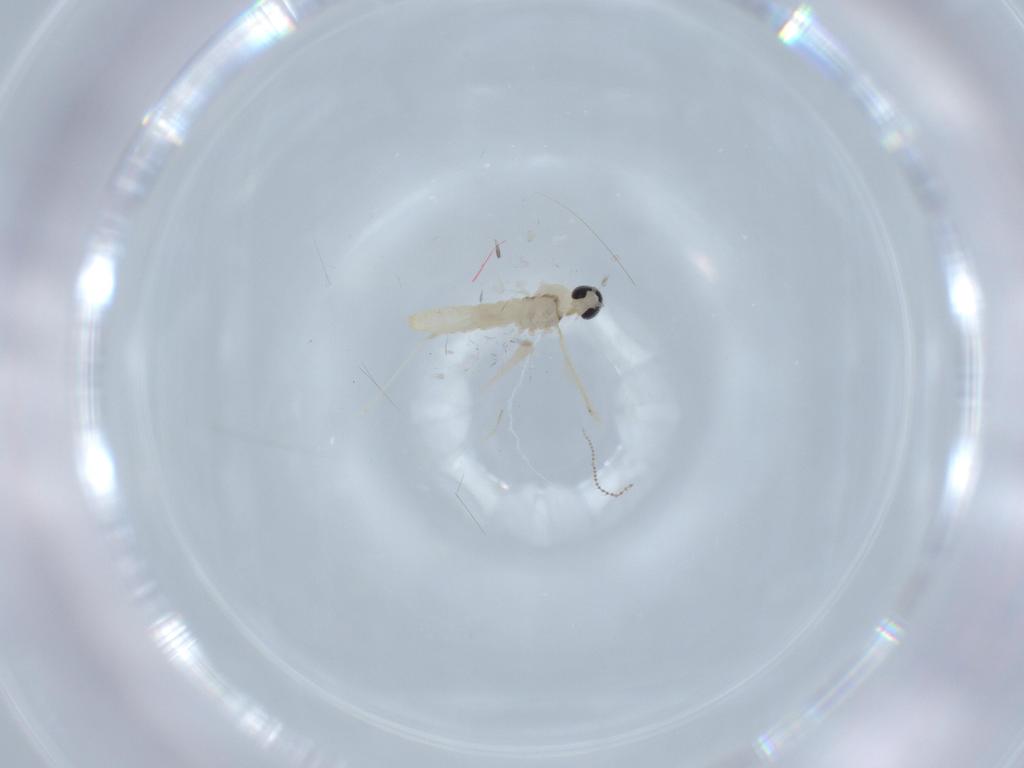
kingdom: Animalia
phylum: Arthropoda
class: Insecta
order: Diptera
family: Cecidomyiidae
